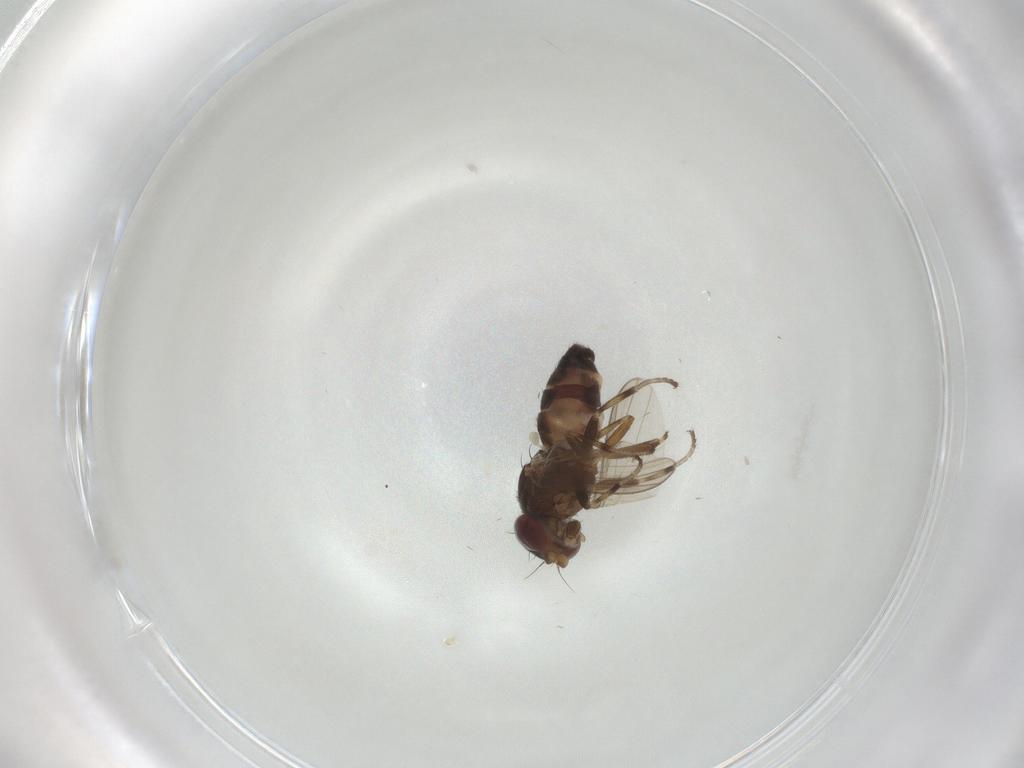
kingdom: Animalia
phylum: Arthropoda
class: Insecta
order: Diptera
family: Heleomyzidae
